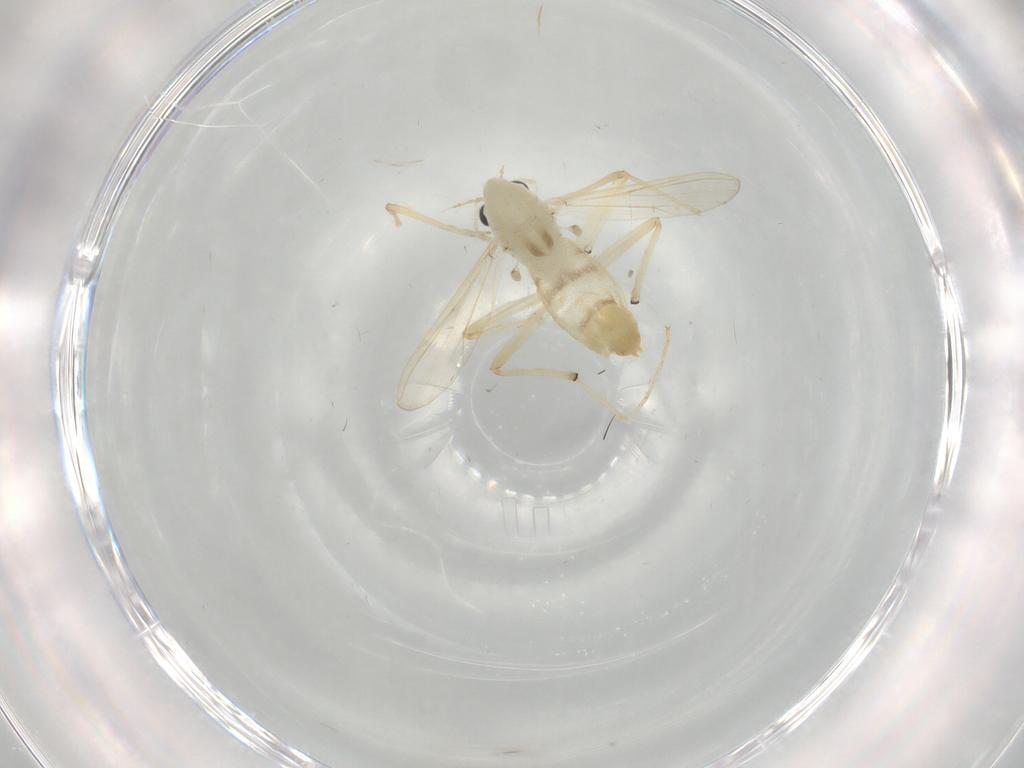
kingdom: Animalia
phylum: Arthropoda
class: Insecta
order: Diptera
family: Chironomidae
